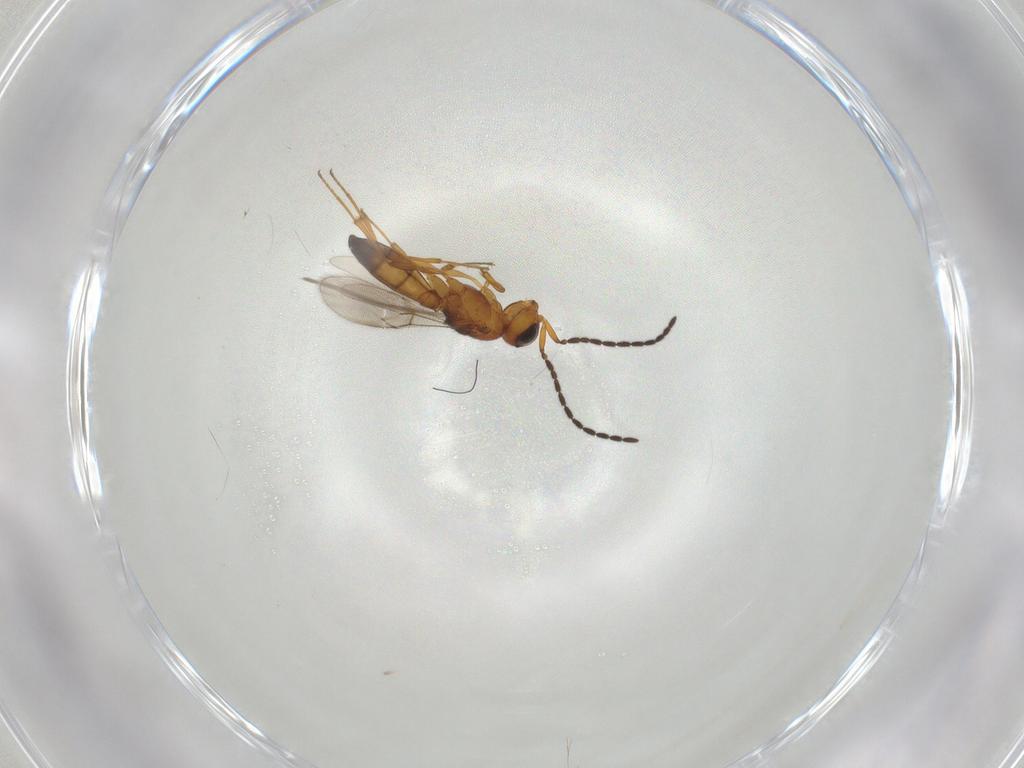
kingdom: Animalia
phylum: Arthropoda
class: Insecta
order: Hymenoptera
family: Scelionidae
